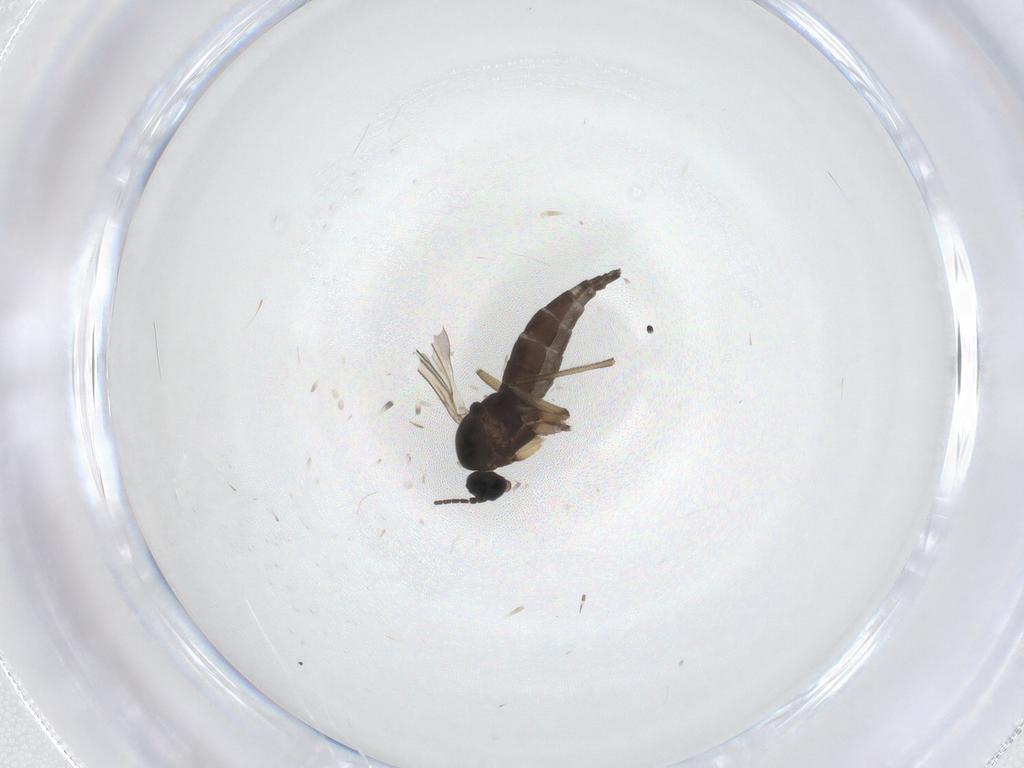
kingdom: Animalia
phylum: Arthropoda
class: Insecta
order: Diptera
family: Sciaridae
